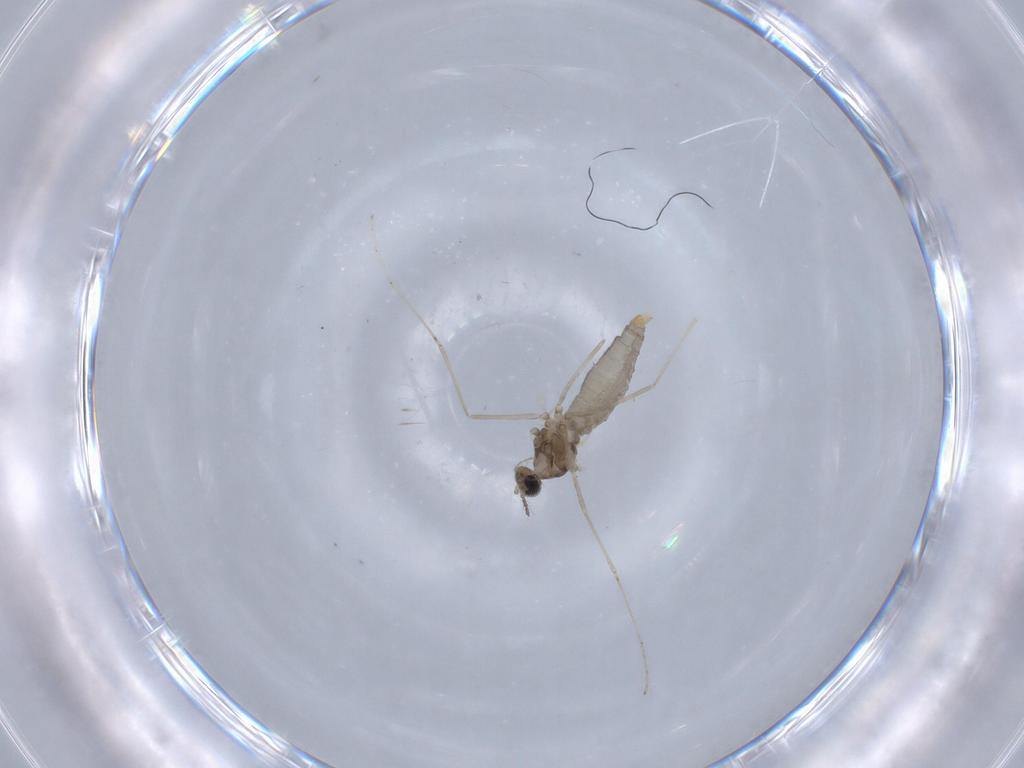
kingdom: Animalia
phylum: Arthropoda
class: Insecta
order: Diptera
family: Cecidomyiidae
